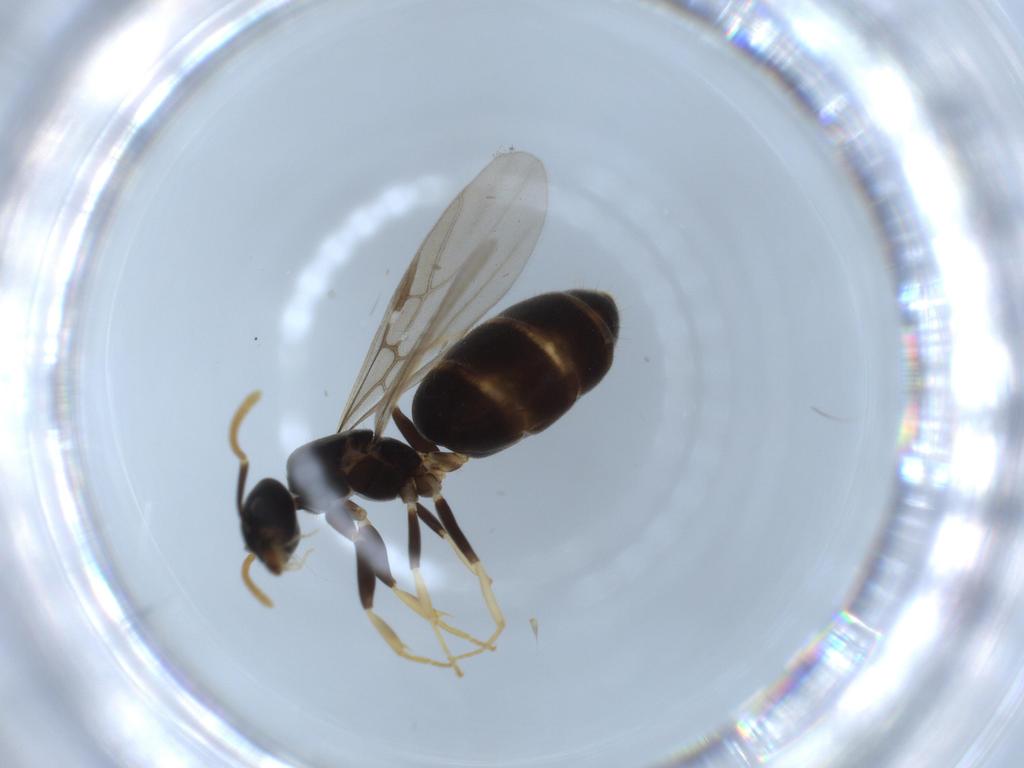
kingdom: Animalia
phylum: Arthropoda
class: Insecta
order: Hymenoptera
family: Formicidae
